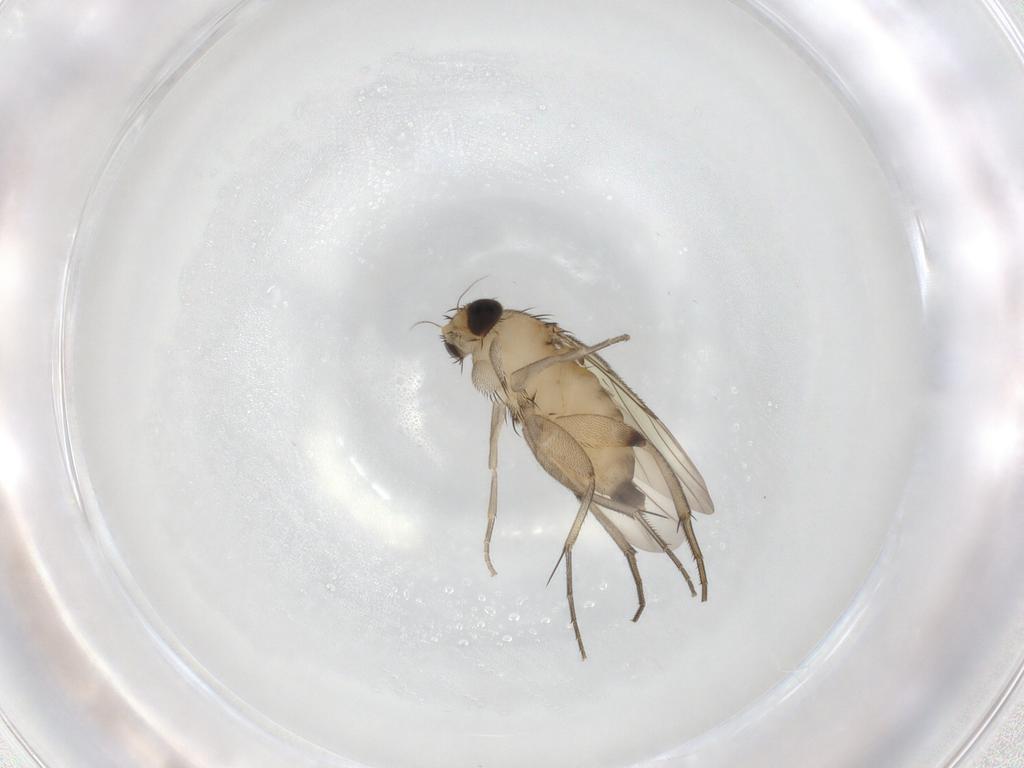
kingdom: Animalia
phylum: Arthropoda
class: Insecta
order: Diptera
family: Phoridae
